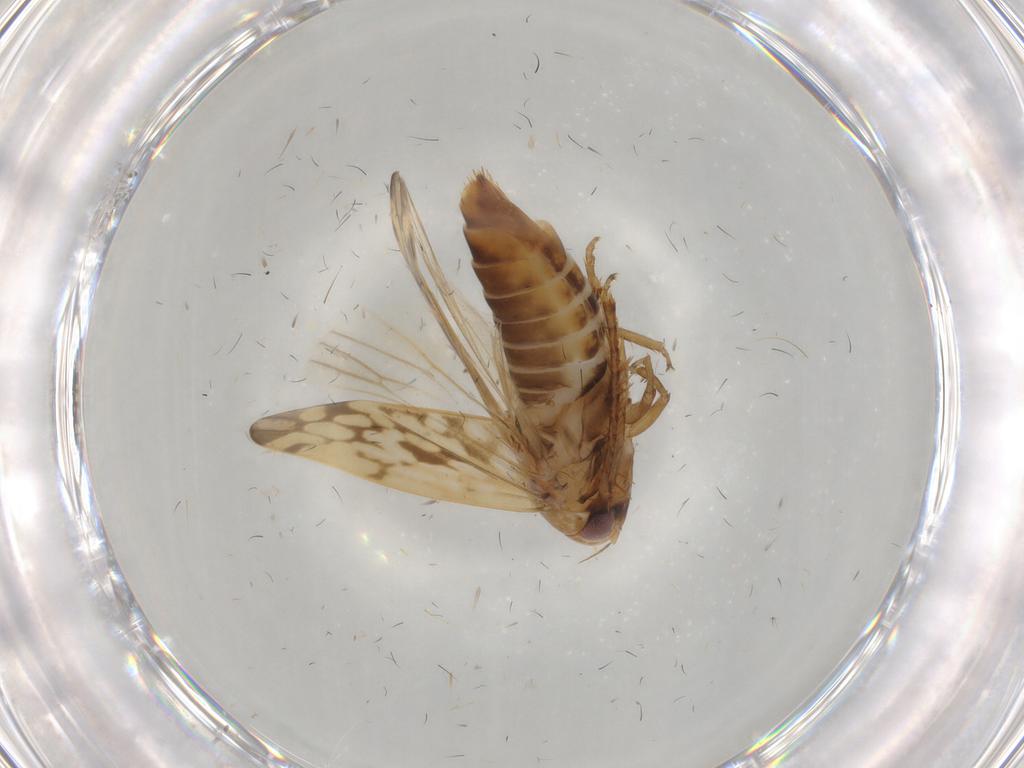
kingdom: Animalia
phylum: Arthropoda
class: Insecta
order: Hemiptera
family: Cicadellidae
